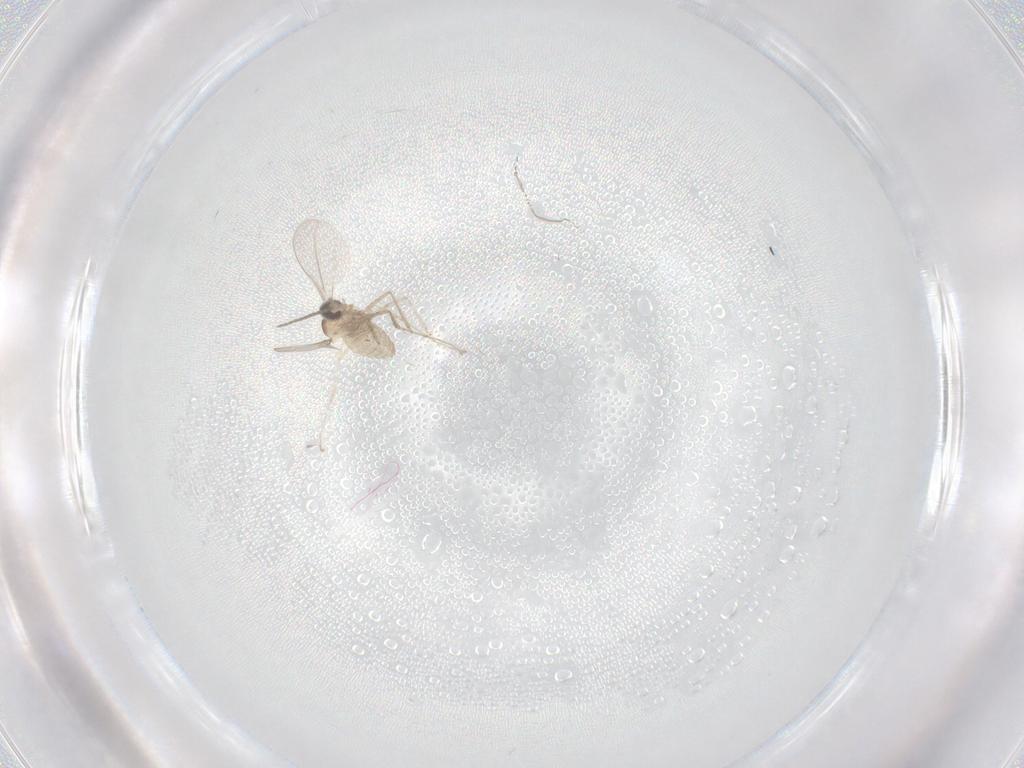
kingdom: Animalia
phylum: Arthropoda
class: Insecta
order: Diptera
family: Cecidomyiidae
